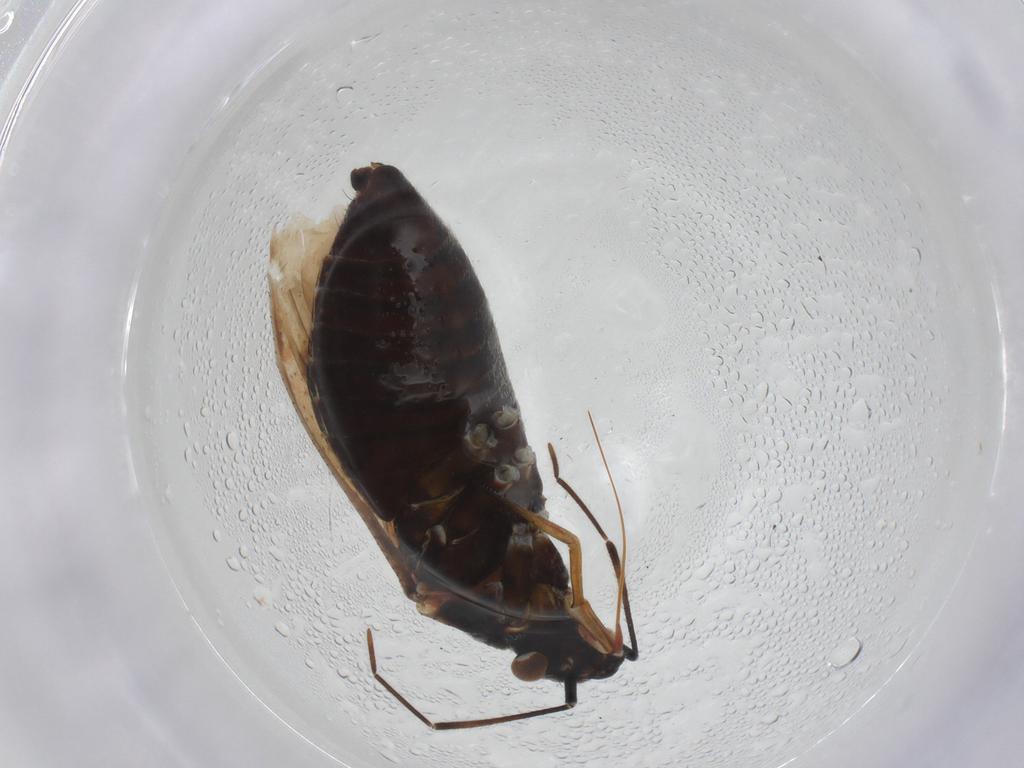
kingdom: Animalia
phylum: Arthropoda
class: Insecta
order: Hemiptera
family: Miridae
